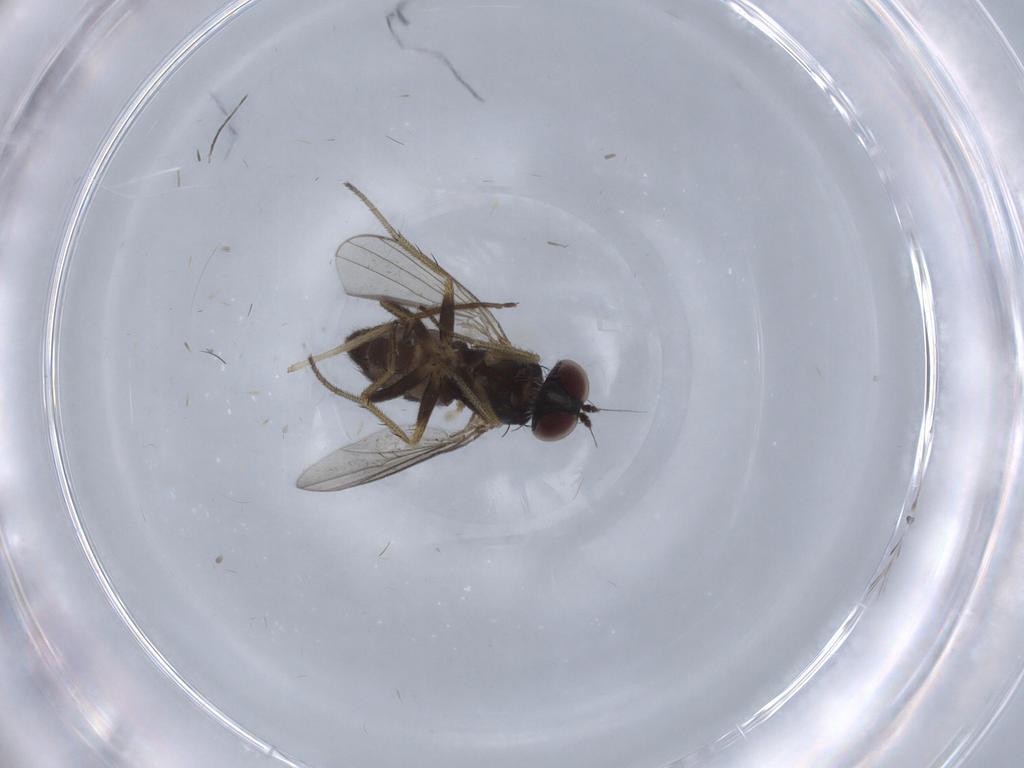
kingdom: Animalia
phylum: Arthropoda
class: Insecta
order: Diptera
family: Chironomidae
